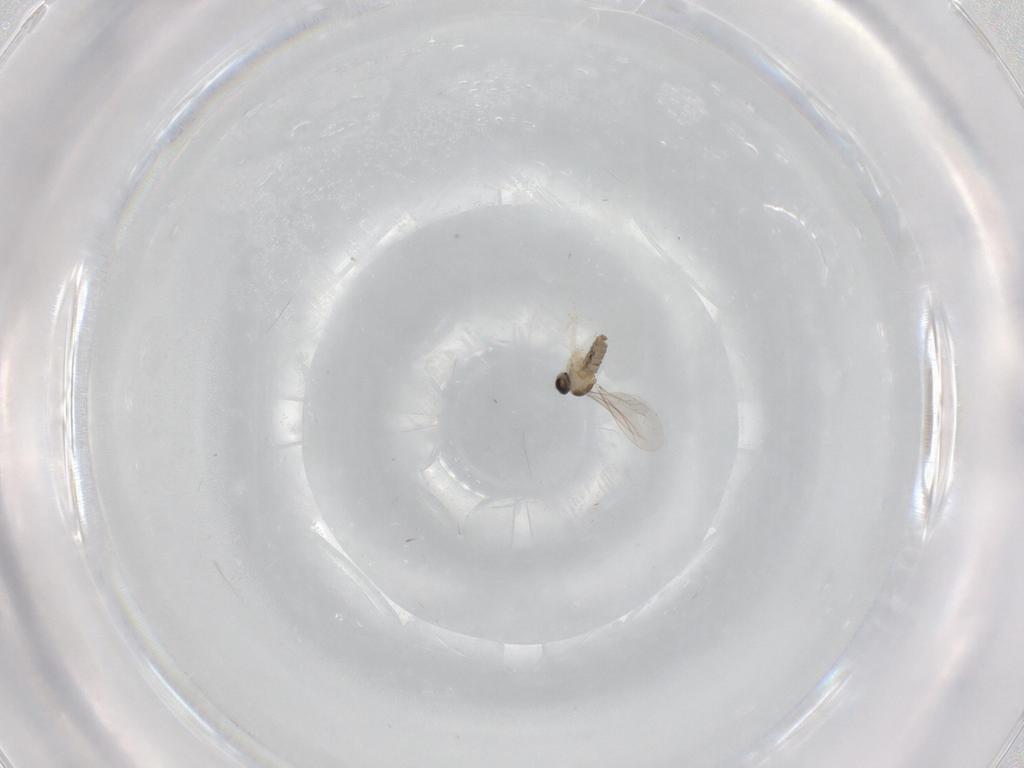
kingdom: Animalia
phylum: Arthropoda
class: Insecta
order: Diptera
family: Phoridae
